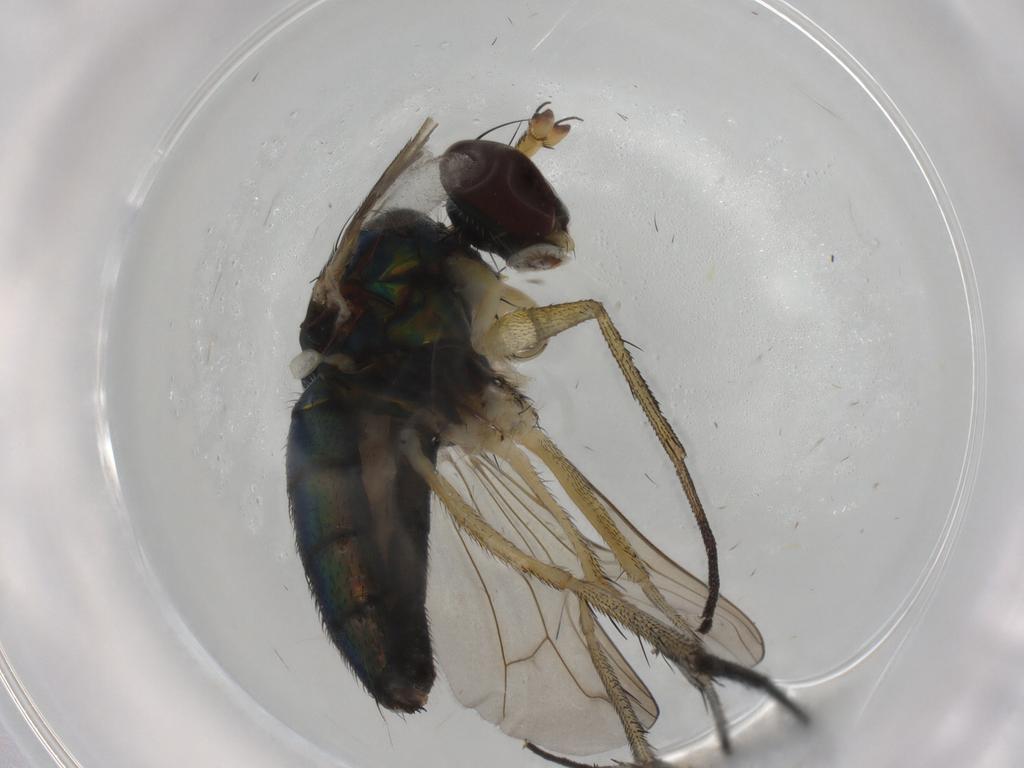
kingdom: Animalia
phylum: Arthropoda
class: Insecta
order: Diptera
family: Dolichopodidae
